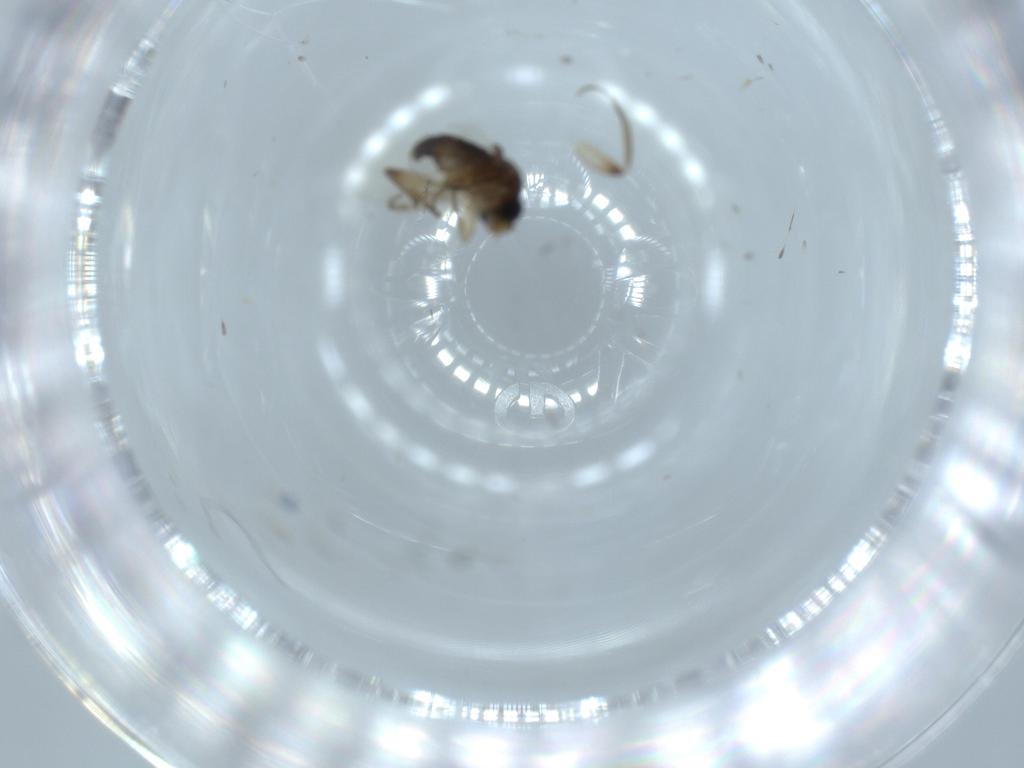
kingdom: Animalia
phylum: Arthropoda
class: Insecta
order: Diptera
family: Phoridae
